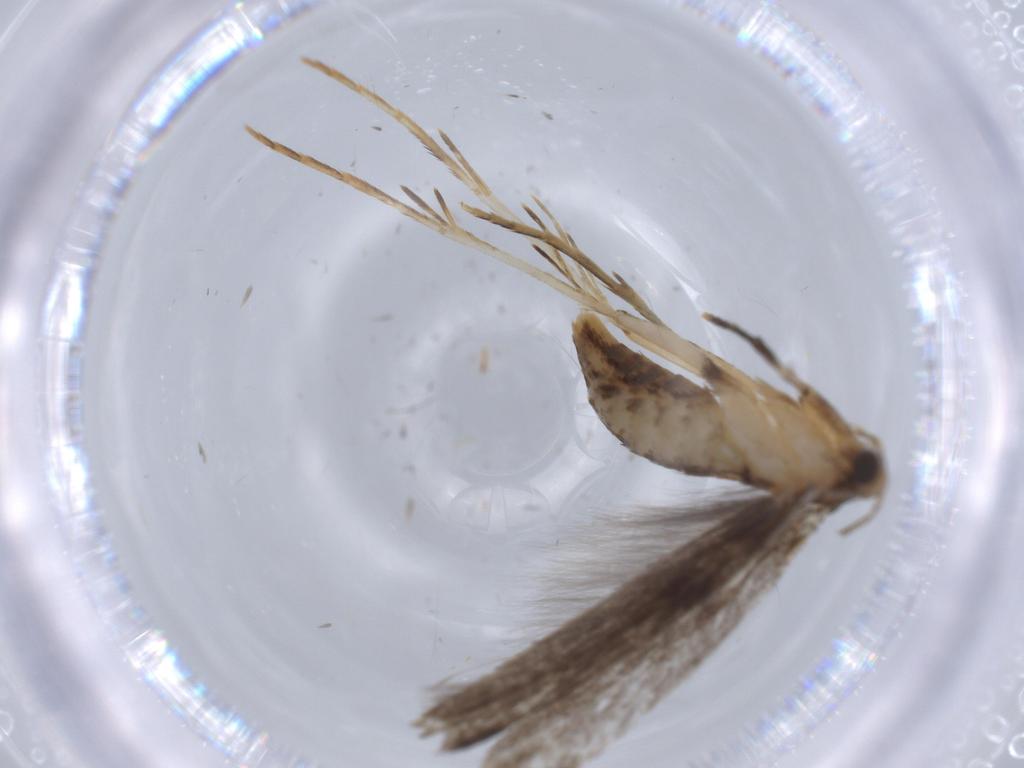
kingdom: Animalia
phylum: Arthropoda
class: Insecta
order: Lepidoptera
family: Tineidae
